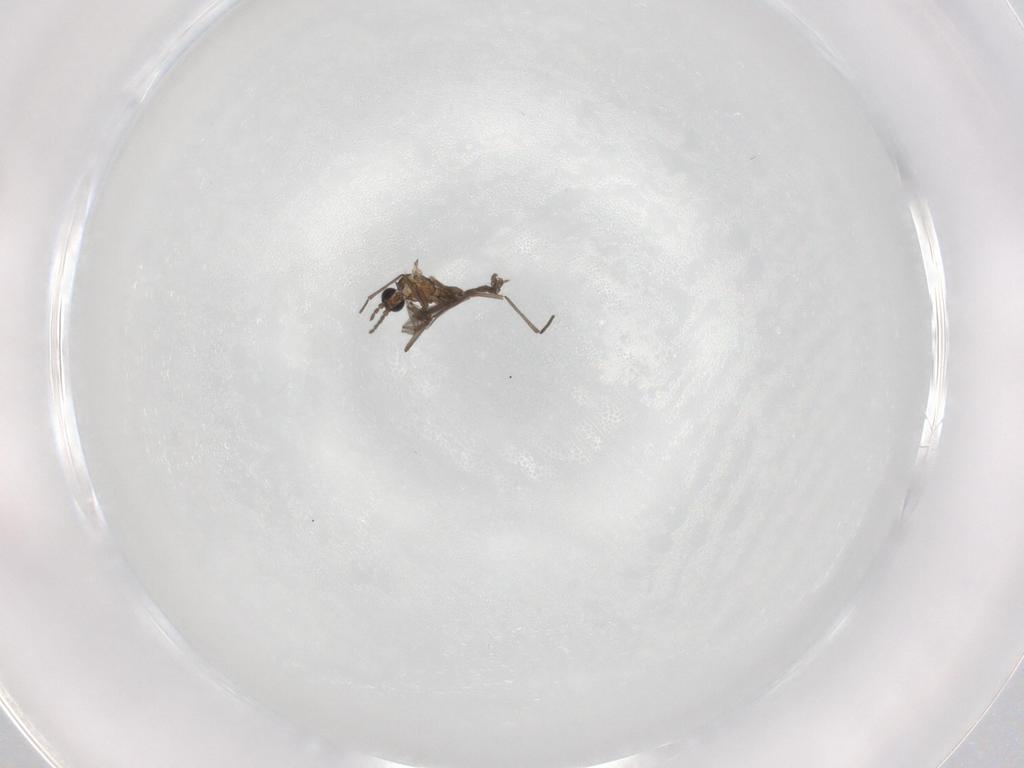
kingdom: Animalia
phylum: Arthropoda
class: Insecta
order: Diptera
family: Sciaridae
